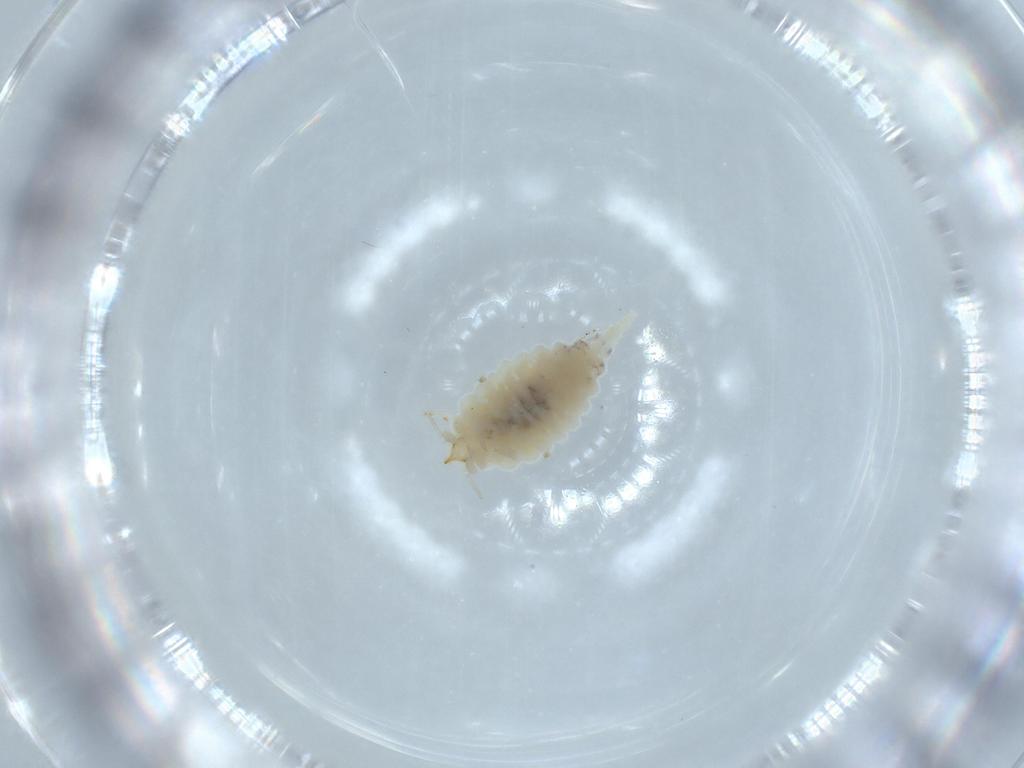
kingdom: Animalia
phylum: Arthropoda
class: Insecta
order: Neuroptera
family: Coniopterygidae
